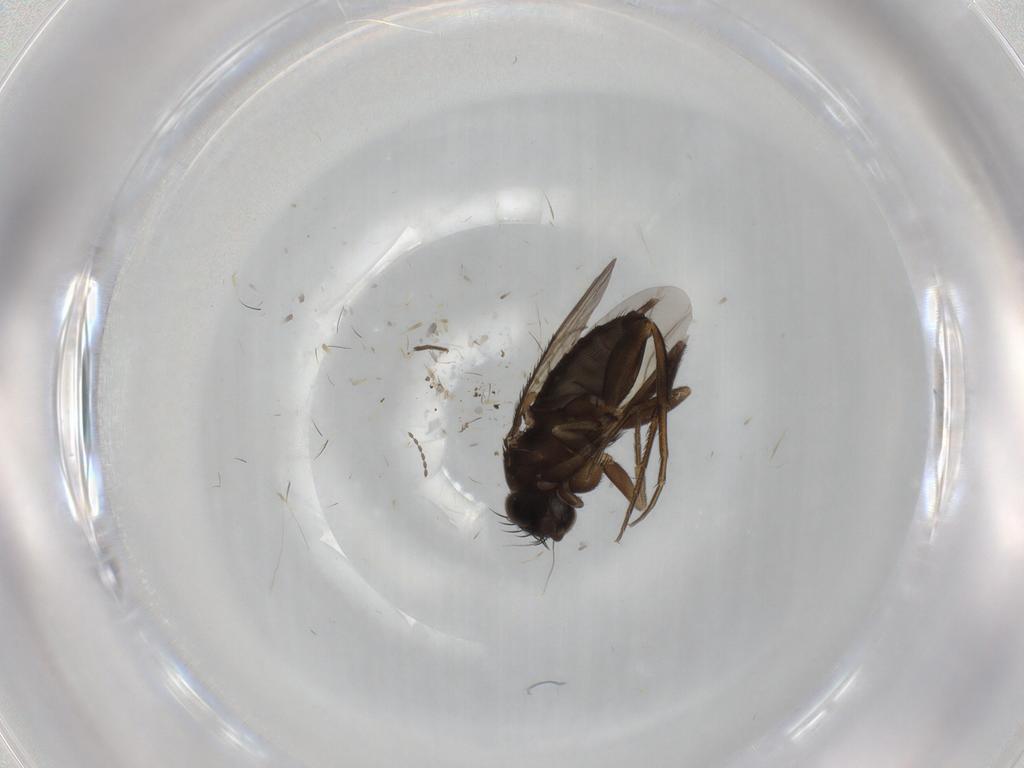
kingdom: Animalia
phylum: Arthropoda
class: Insecta
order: Diptera
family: Phoridae
